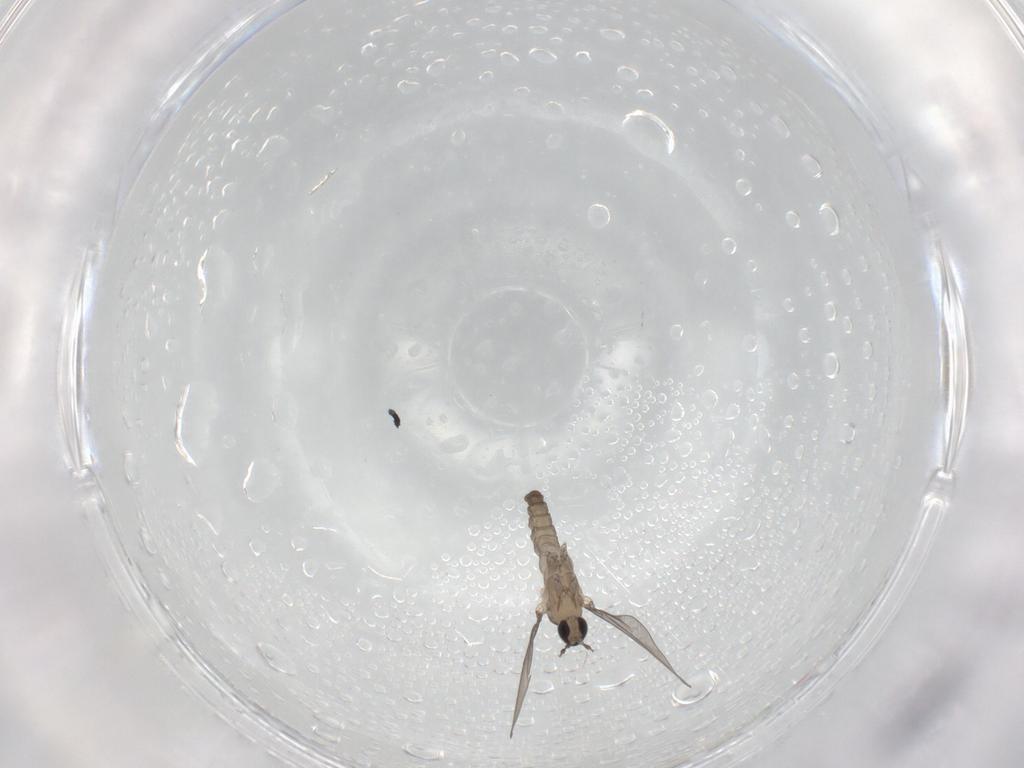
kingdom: Animalia
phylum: Arthropoda
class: Insecta
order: Diptera
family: Cecidomyiidae
